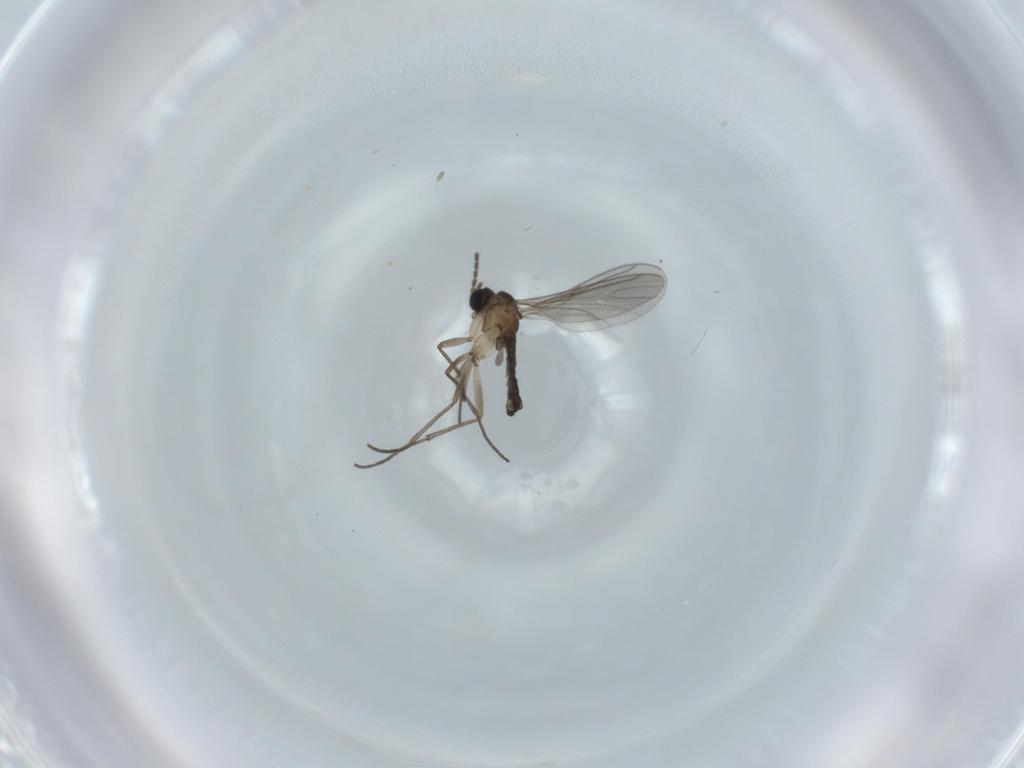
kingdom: Animalia
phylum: Arthropoda
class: Insecta
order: Diptera
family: Sciaridae
